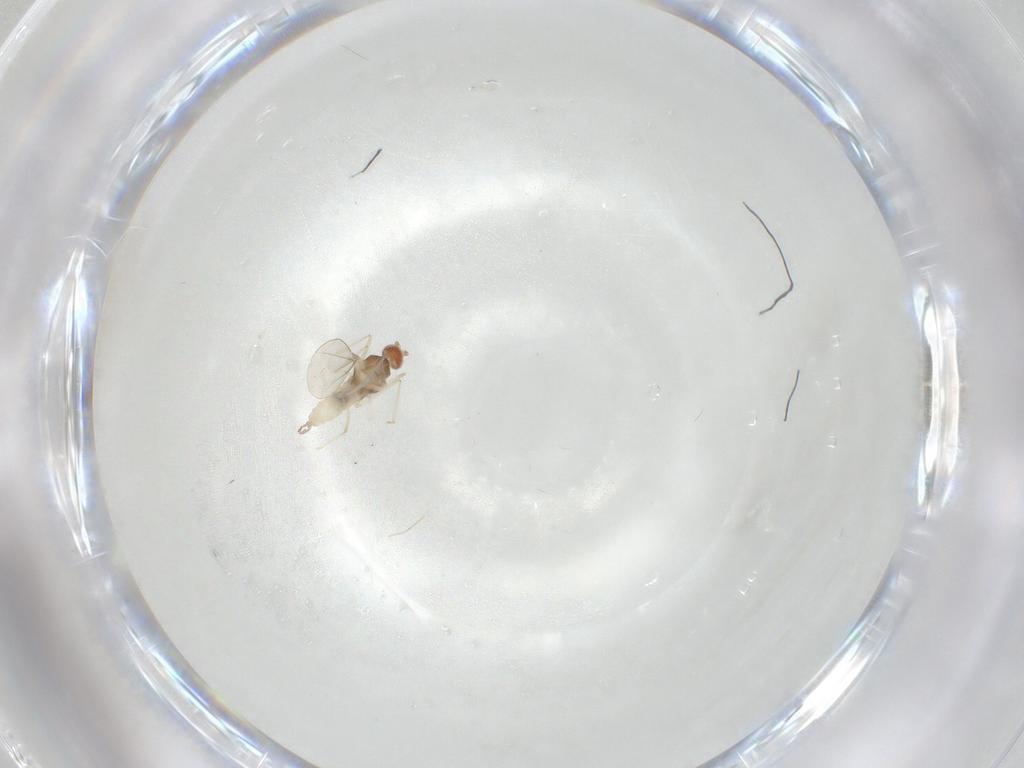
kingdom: Animalia
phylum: Arthropoda
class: Insecta
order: Diptera
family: Cecidomyiidae
